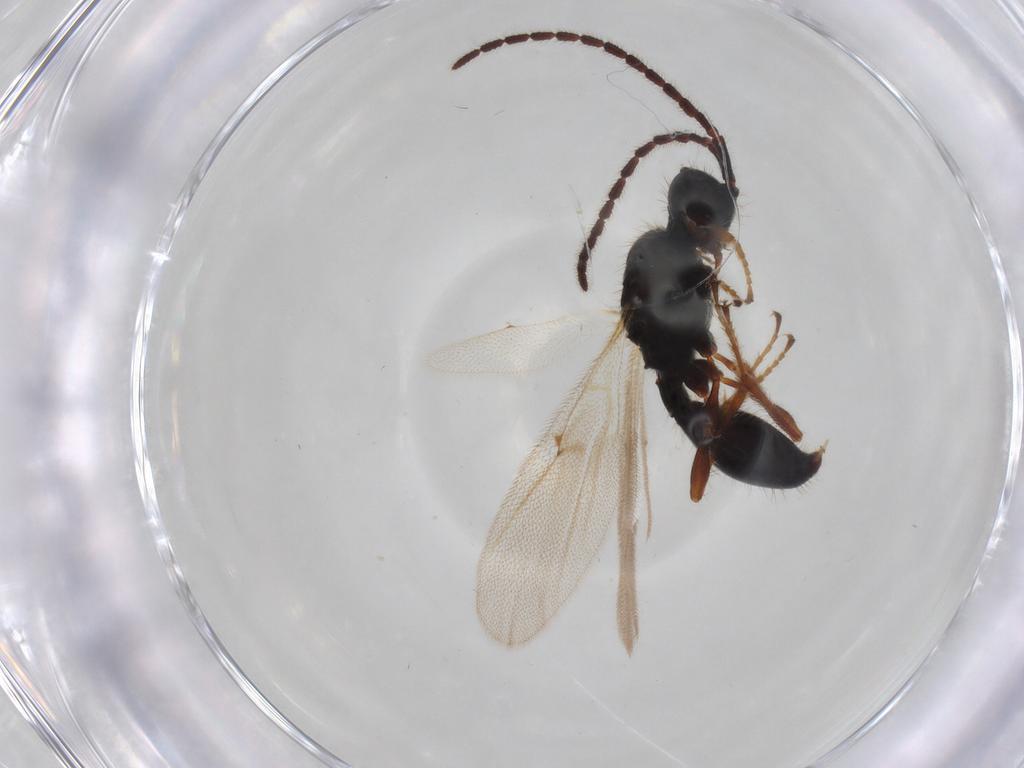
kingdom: Animalia
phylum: Arthropoda
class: Insecta
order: Hymenoptera
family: Diapriidae
